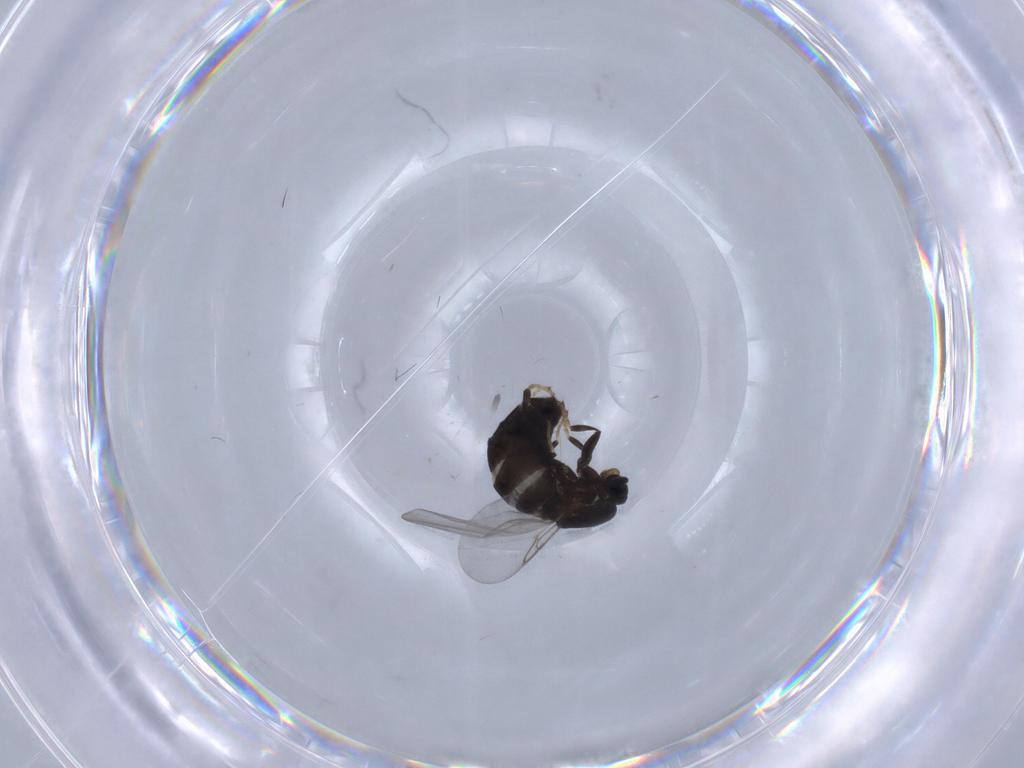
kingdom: Animalia
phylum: Arthropoda
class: Insecta
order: Diptera
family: Scatopsidae
